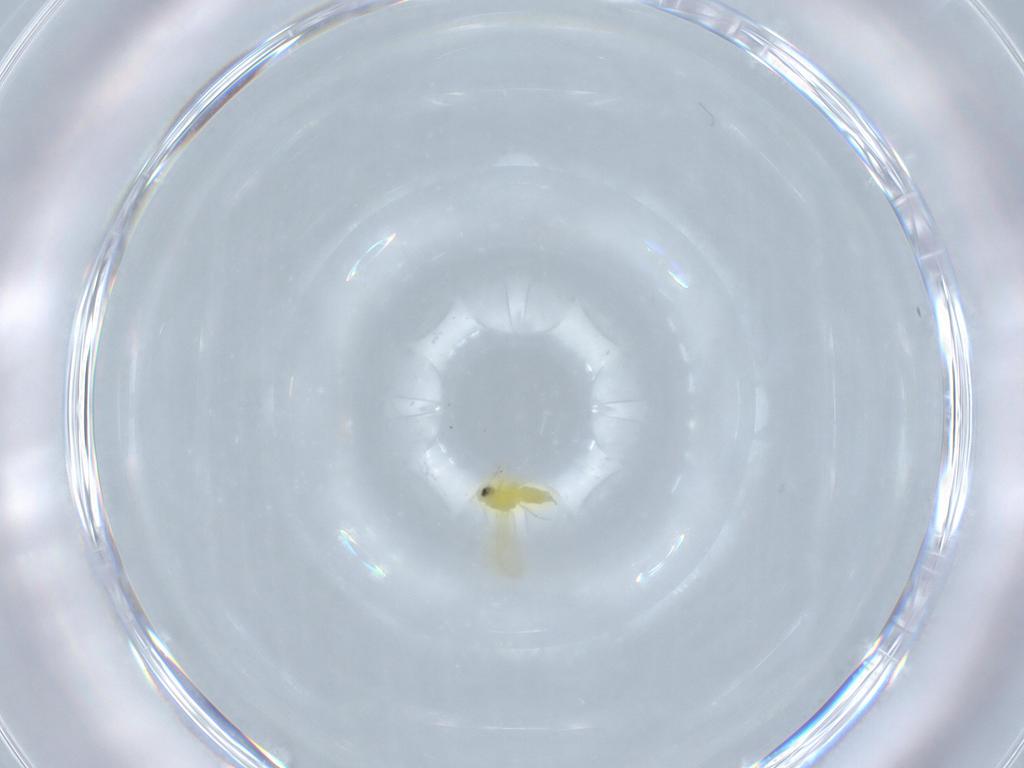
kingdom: Animalia
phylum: Arthropoda
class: Insecta
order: Hemiptera
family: Aleyrodidae
